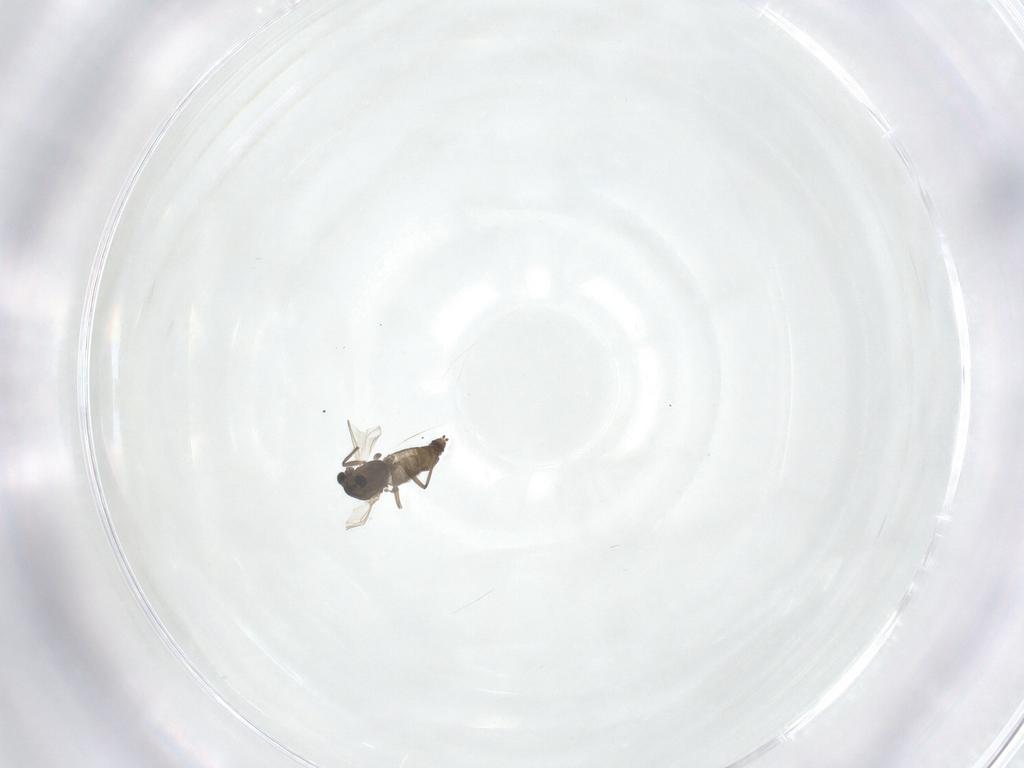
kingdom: Animalia
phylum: Arthropoda
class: Insecta
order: Diptera
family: Chironomidae
